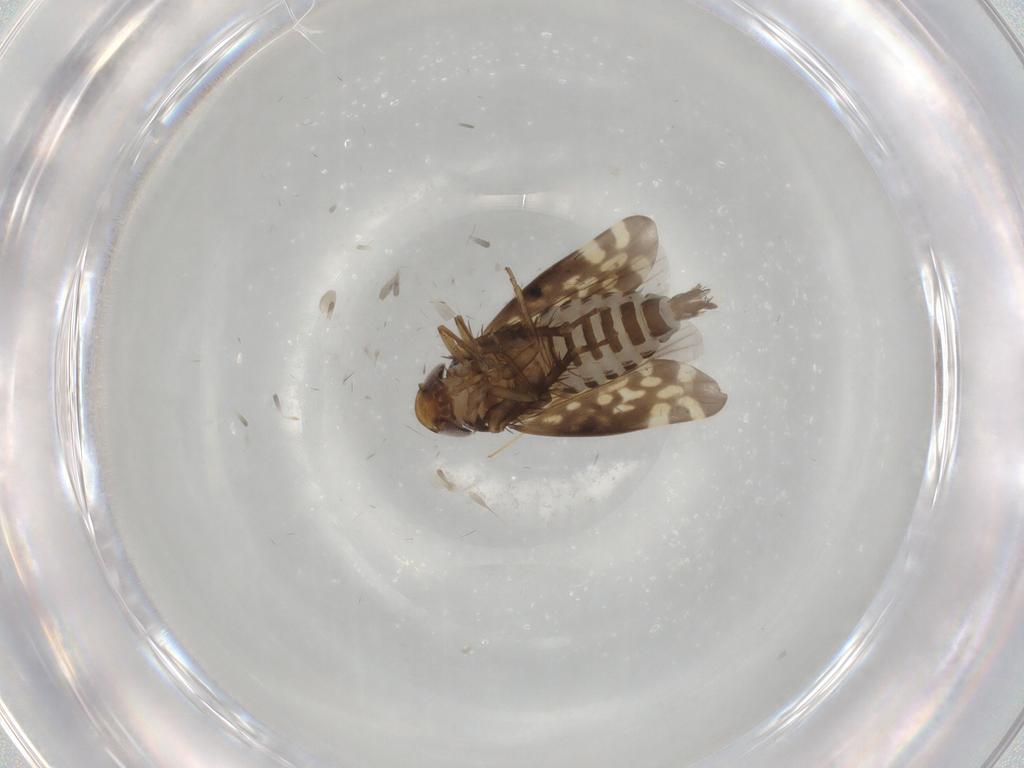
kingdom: Animalia
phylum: Arthropoda
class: Insecta
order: Hemiptera
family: Cicadellidae
